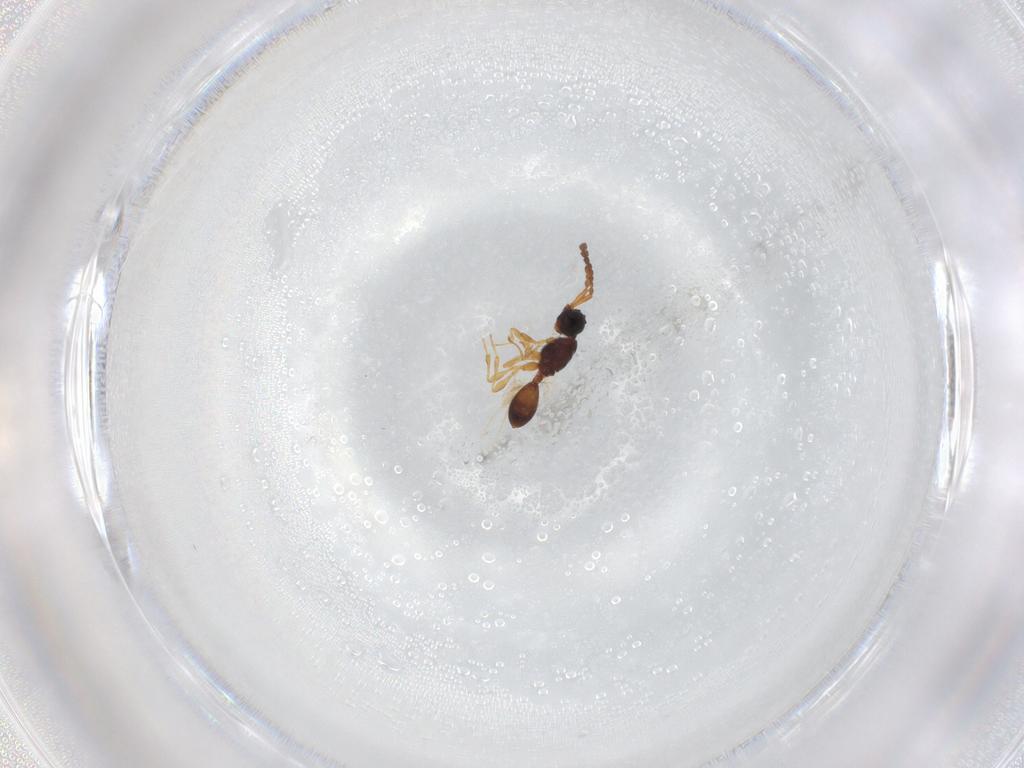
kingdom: Animalia
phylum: Arthropoda
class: Insecta
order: Hymenoptera
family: Diapriidae
